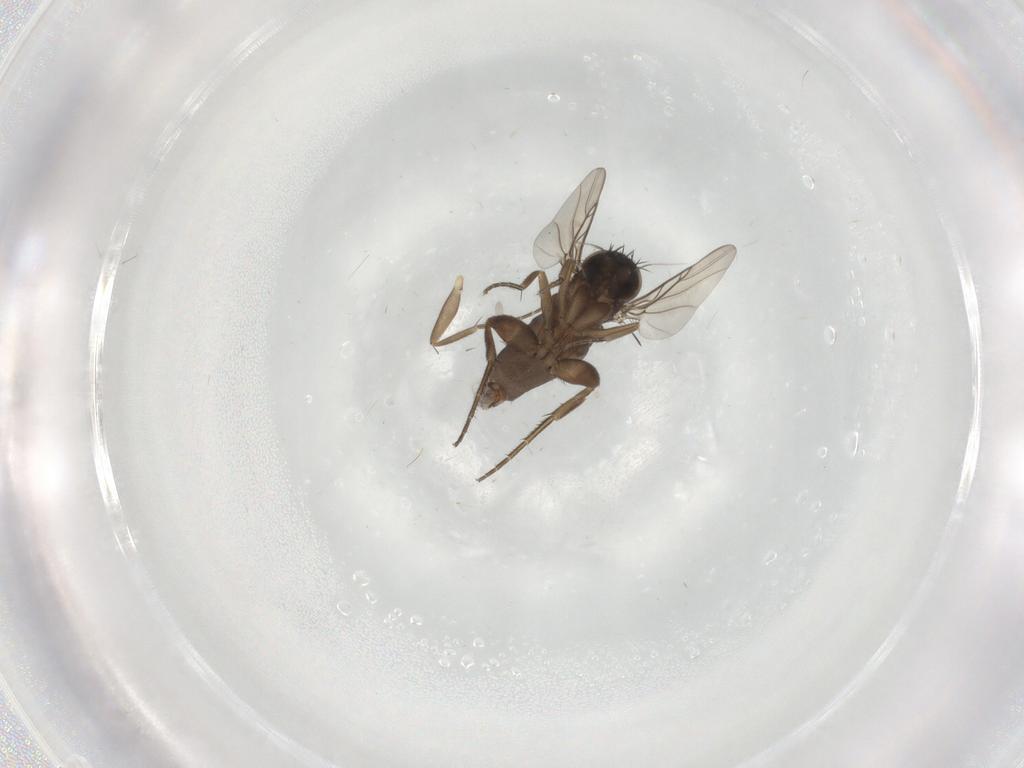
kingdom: Animalia
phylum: Arthropoda
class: Insecta
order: Diptera
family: Phoridae
